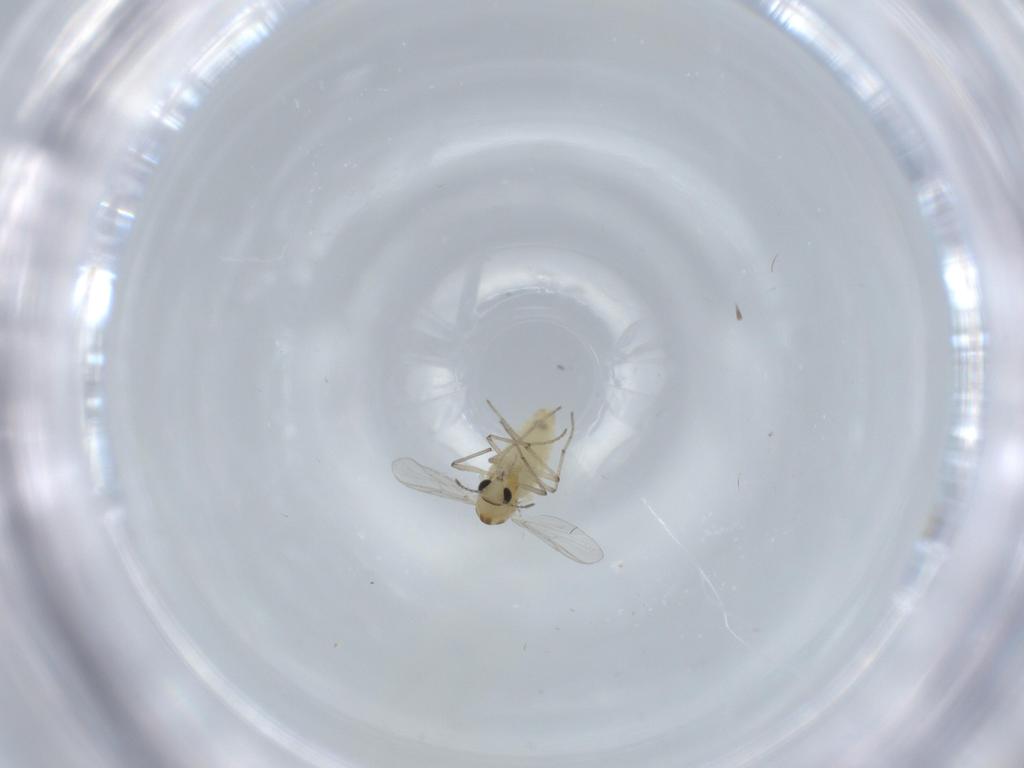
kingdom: Animalia
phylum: Arthropoda
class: Insecta
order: Diptera
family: Chironomidae
